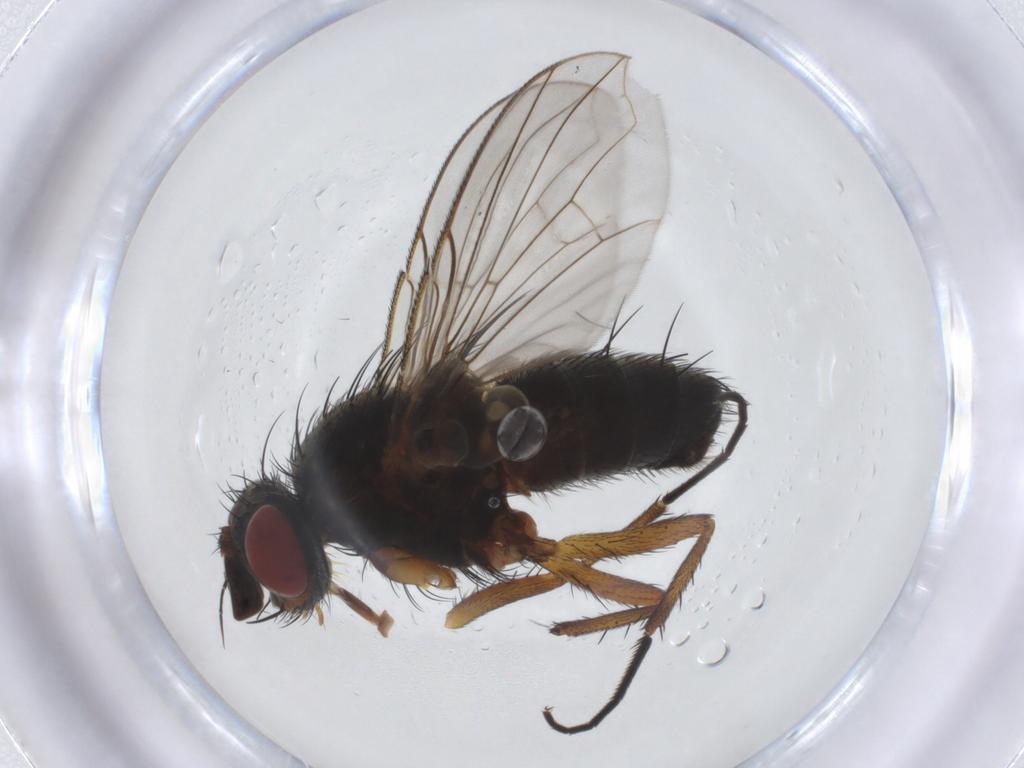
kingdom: Animalia
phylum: Arthropoda
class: Insecta
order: Diptera
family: Anthomyiidae
